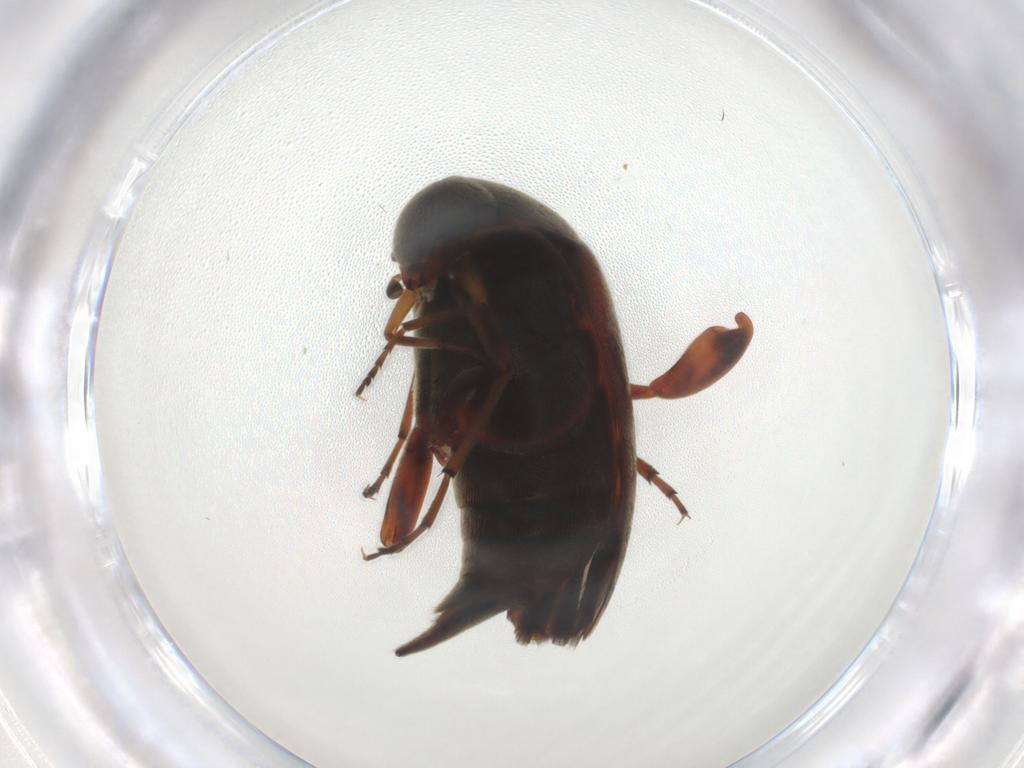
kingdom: Animalia
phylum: Arthropoda
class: Insecta
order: Coleoptera
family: Mordellidae
